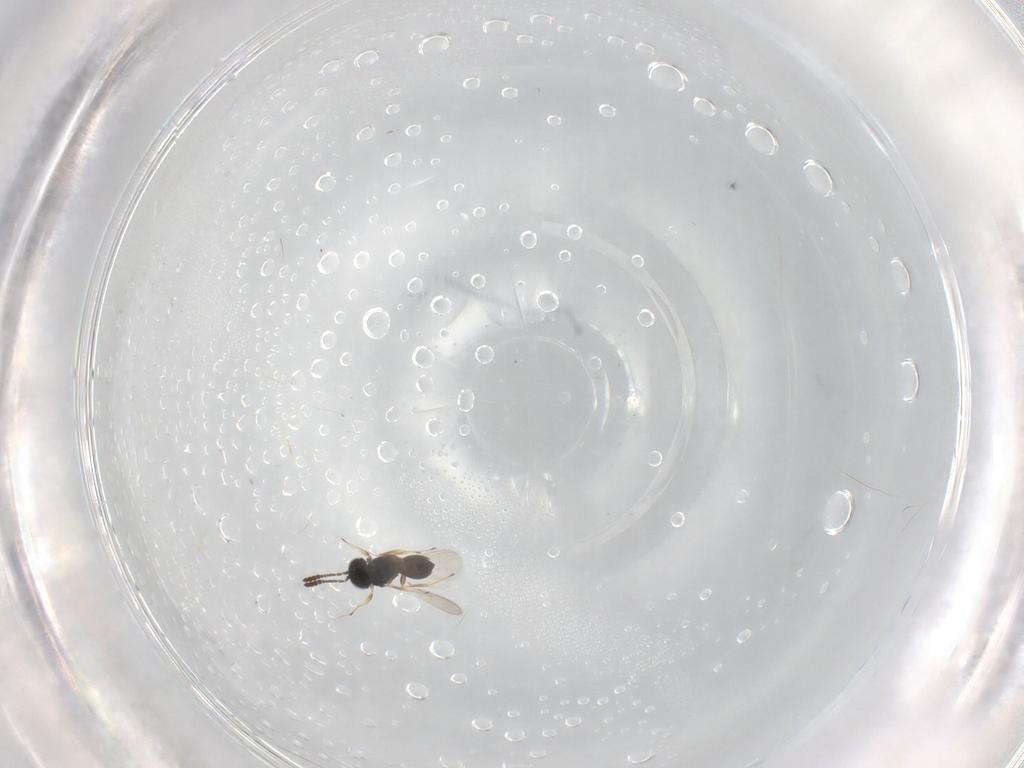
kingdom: Animalia
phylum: Arthropoda
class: Insecta
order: Hymenoptera
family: Scelionidae
